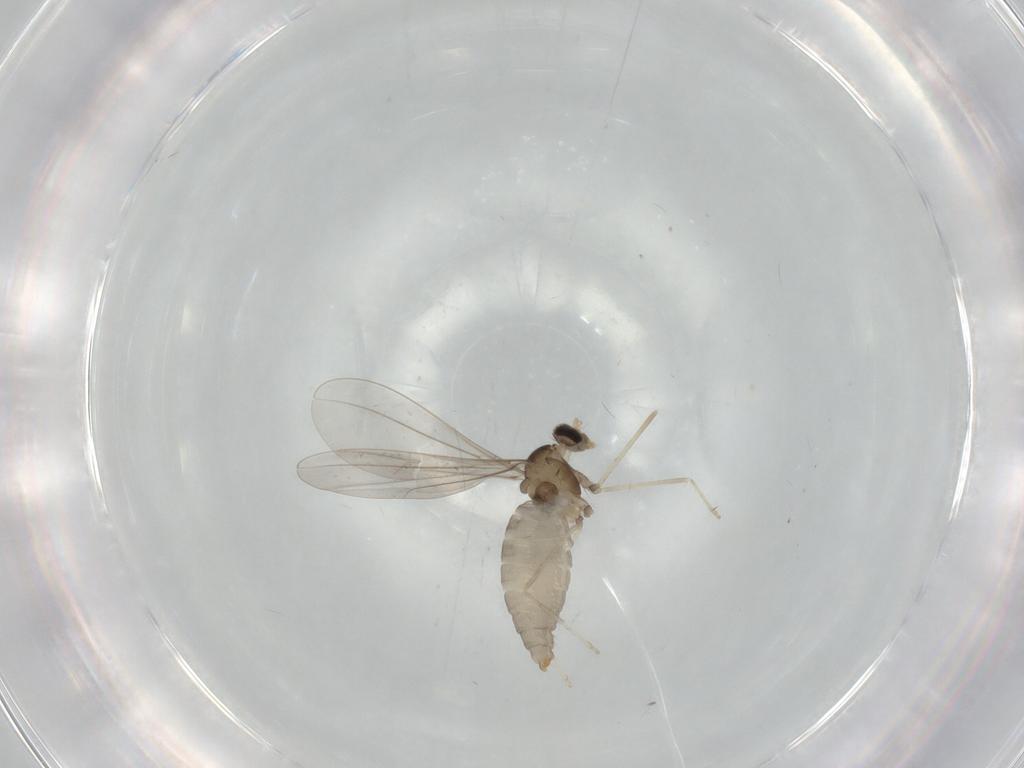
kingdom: Animalia
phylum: Arthropoda
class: Insecta
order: Diptera
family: Cecidomyiidae
